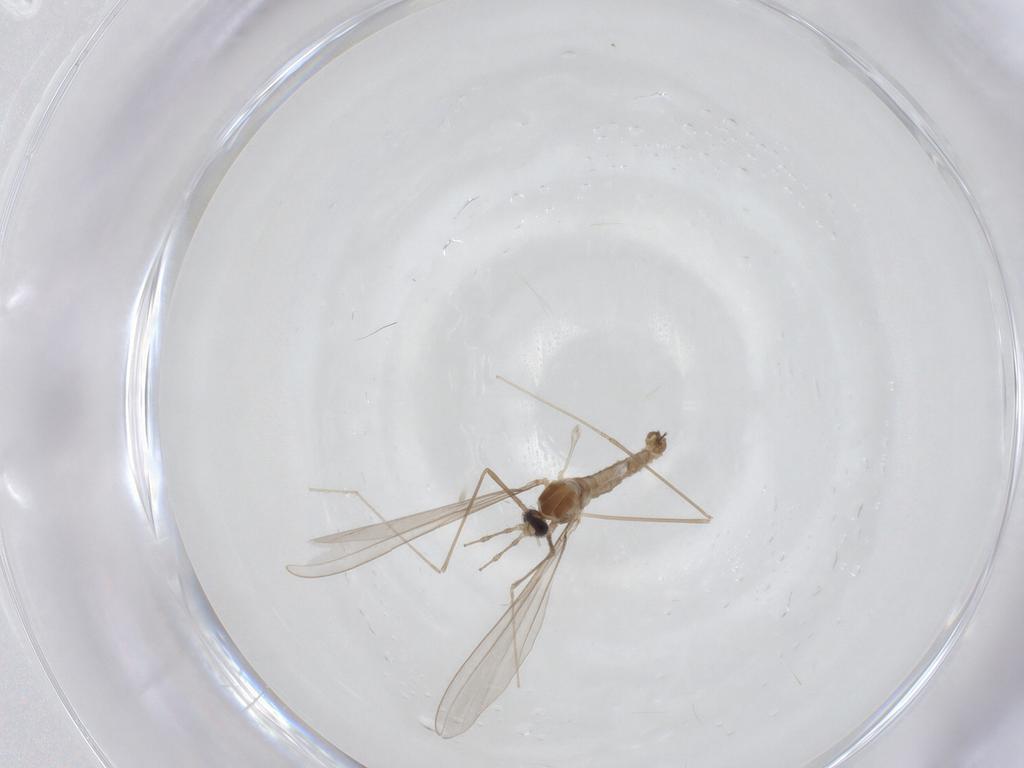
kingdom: Animalia
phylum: Arthropoda
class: Insecta
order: Diptera
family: Cecidomyiidae
